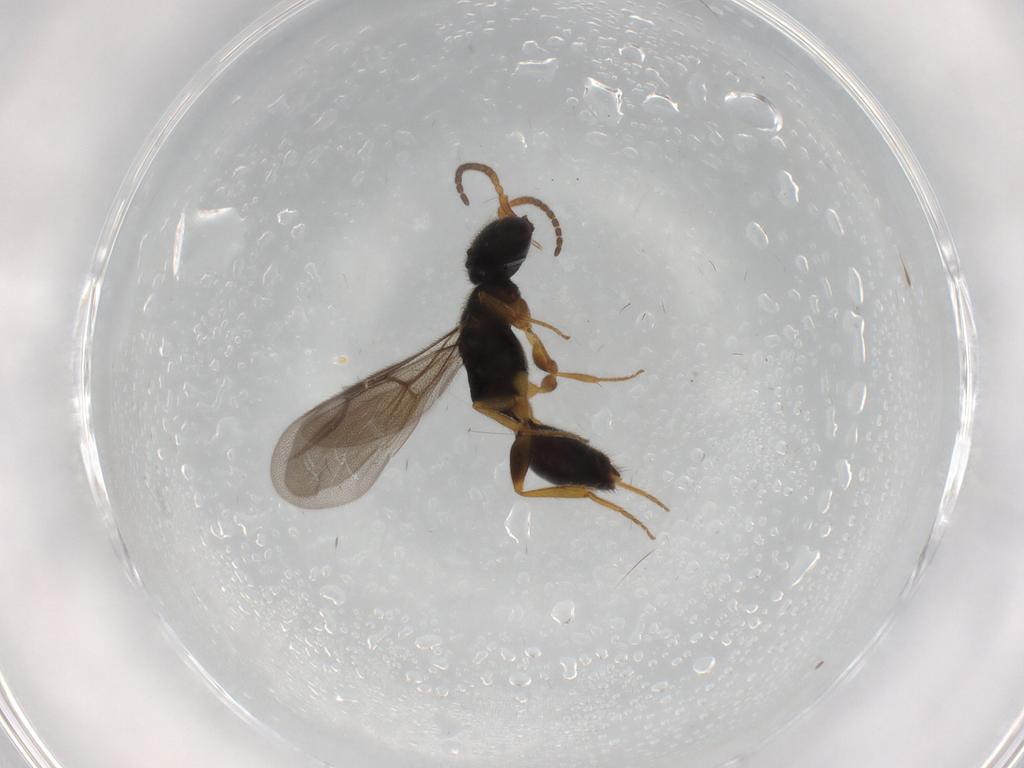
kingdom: Animalia
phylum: Arthropoda
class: Insecta
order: Hymenoptera
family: Bethylidae
